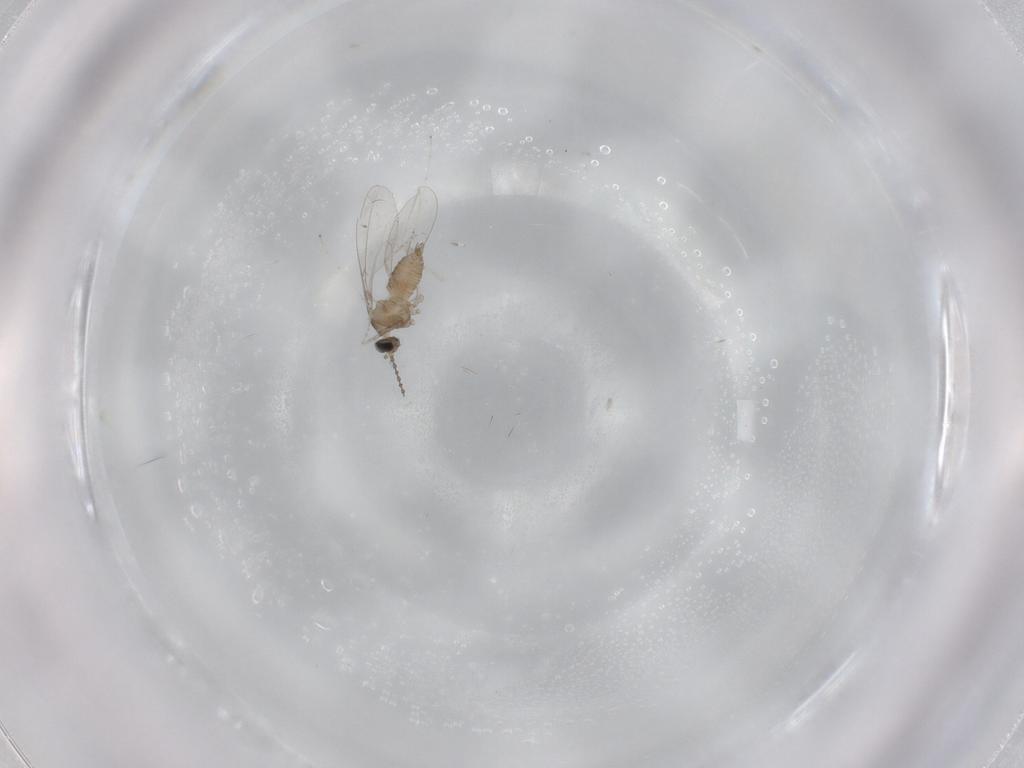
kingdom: Animalia
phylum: Arthropoda
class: Insecta
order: Diptera
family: Cecidomyiidae
